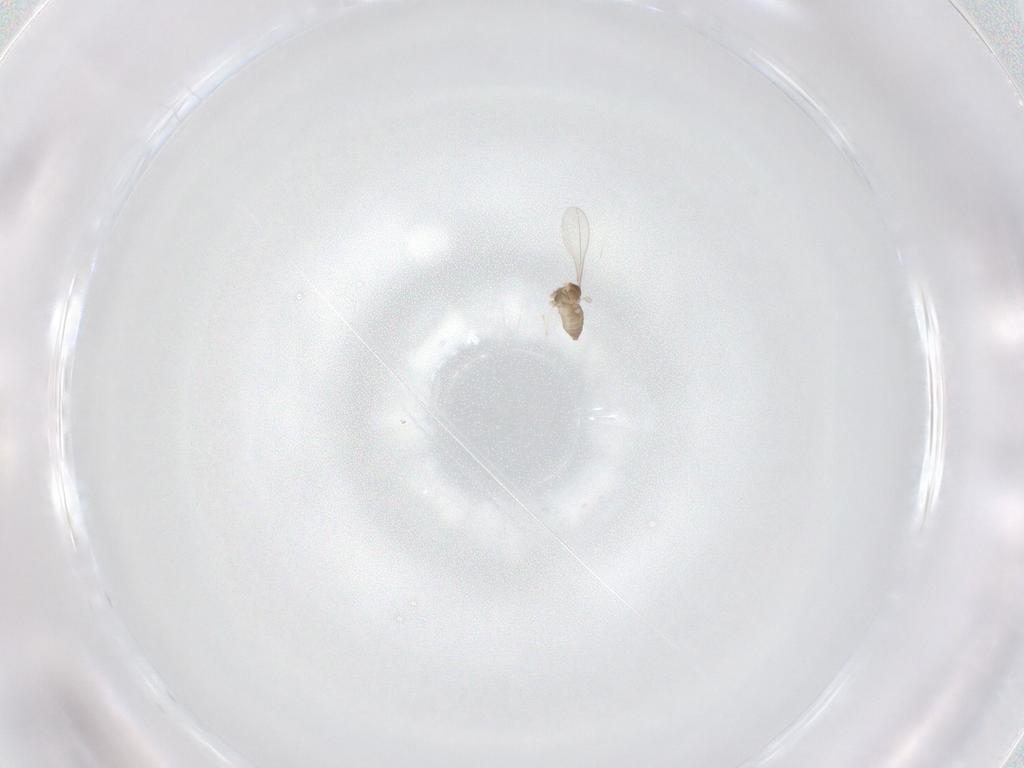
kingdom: Animalia
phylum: Arthropoda
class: Insecta
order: Diptera
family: Cecidomyiidae
